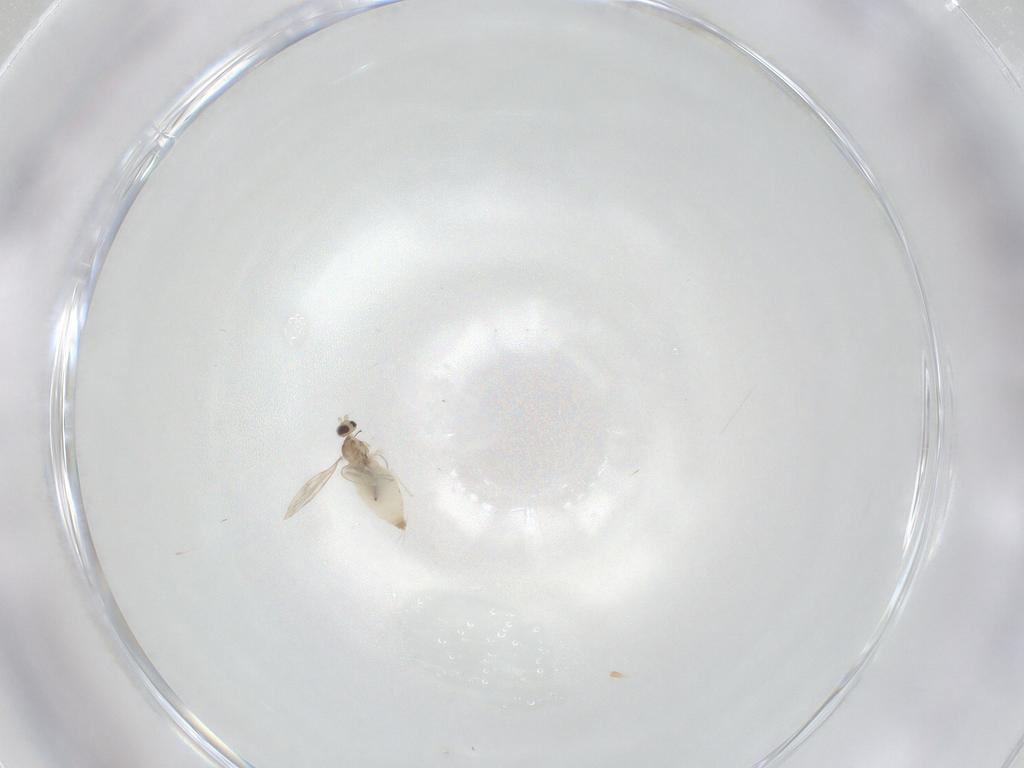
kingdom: Animalia
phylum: Arthropoda
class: Insecta
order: Diptera
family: Cecidomyiidae
